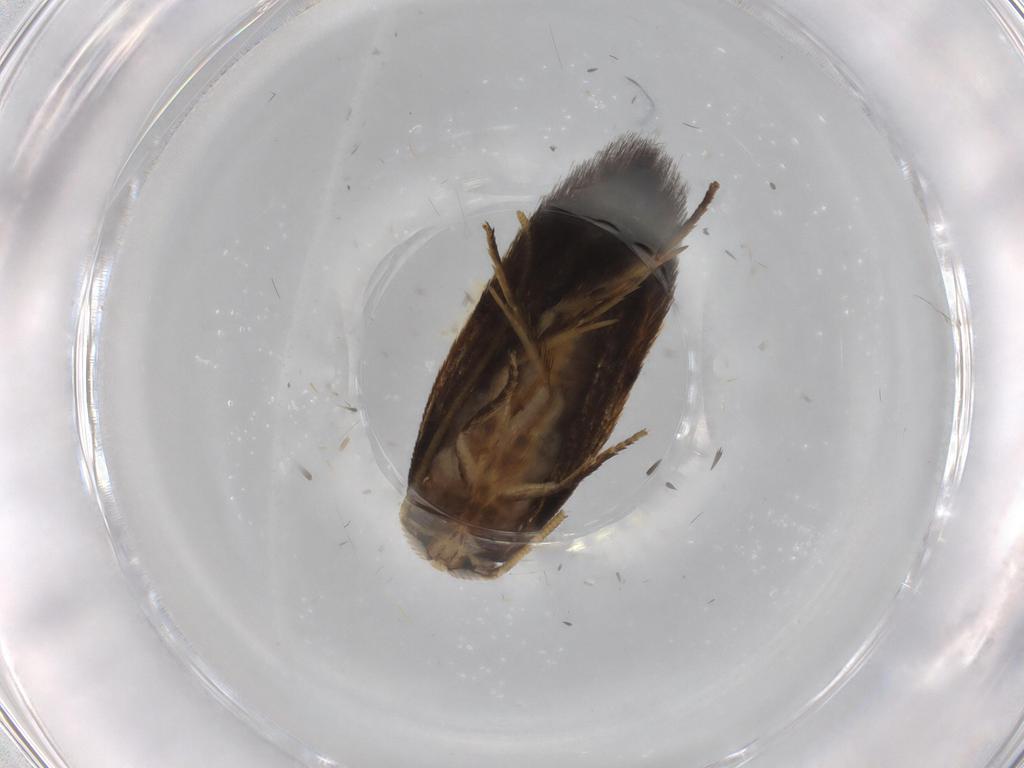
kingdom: Animalia
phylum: Arthropoda
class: Insecta
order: Lepidoptera
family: Opostegidae
